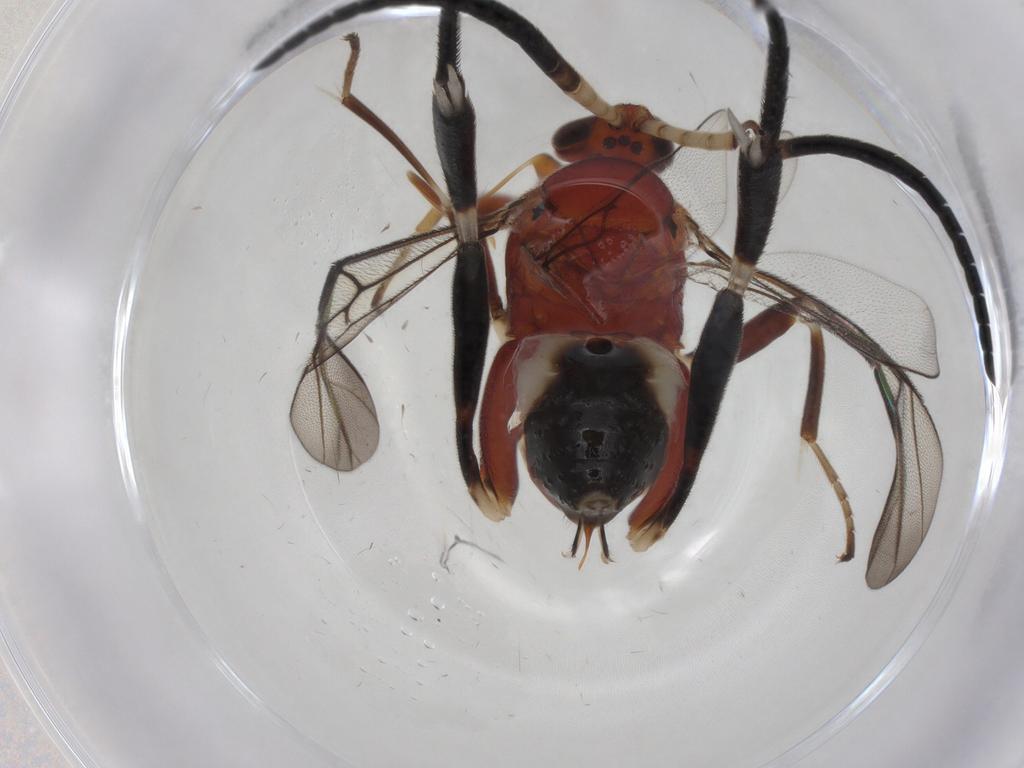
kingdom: Animalia
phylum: Arthropoda
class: Insecta
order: Hymenoptera
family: Braconidae
